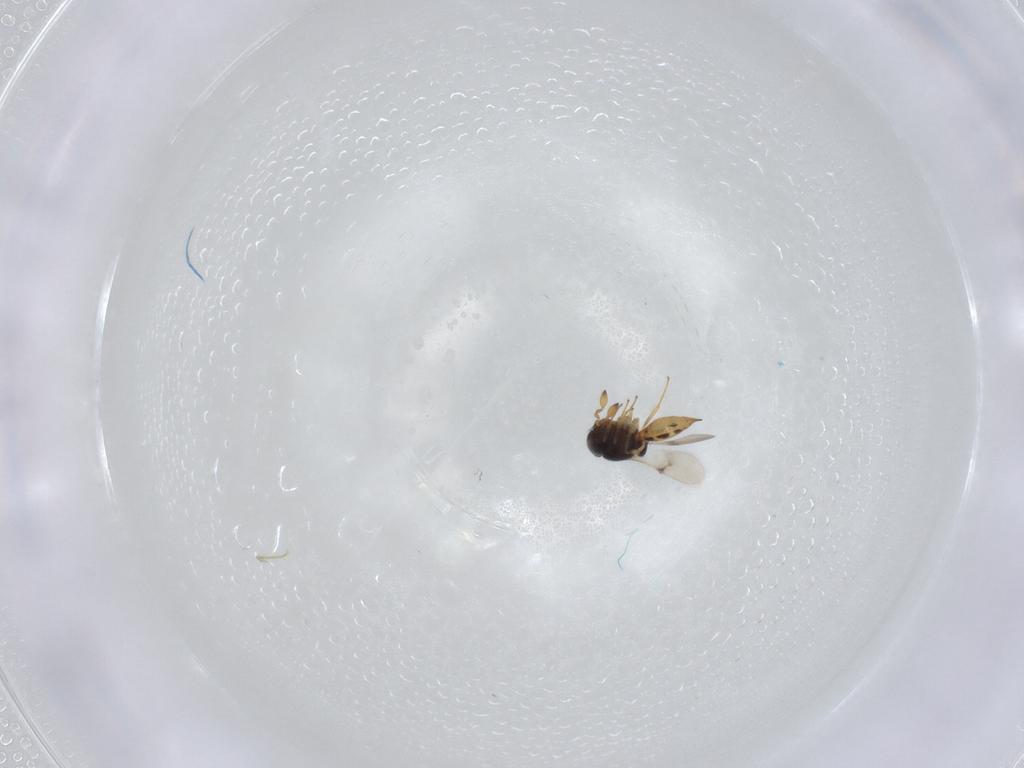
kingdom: Animalia
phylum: Arthropoda
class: Insecta
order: Hymenoptera
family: Scelionidae
